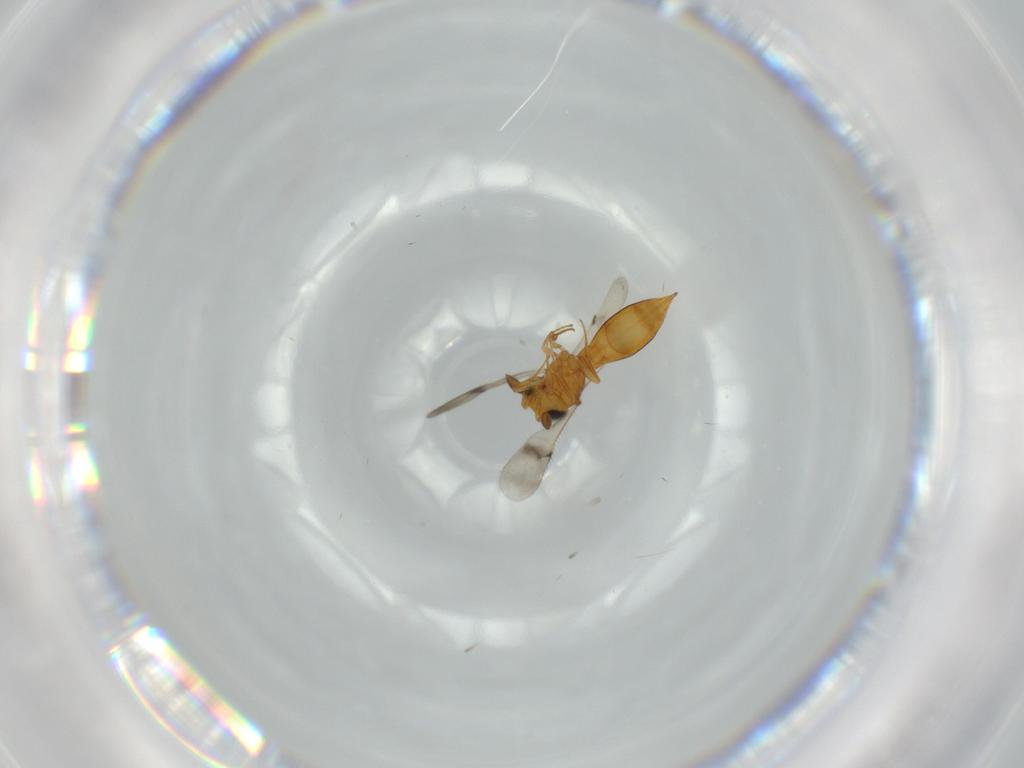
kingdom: Animalia
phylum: Arthropoda
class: Insecta
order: Hymenoptera
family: Scelionidae
